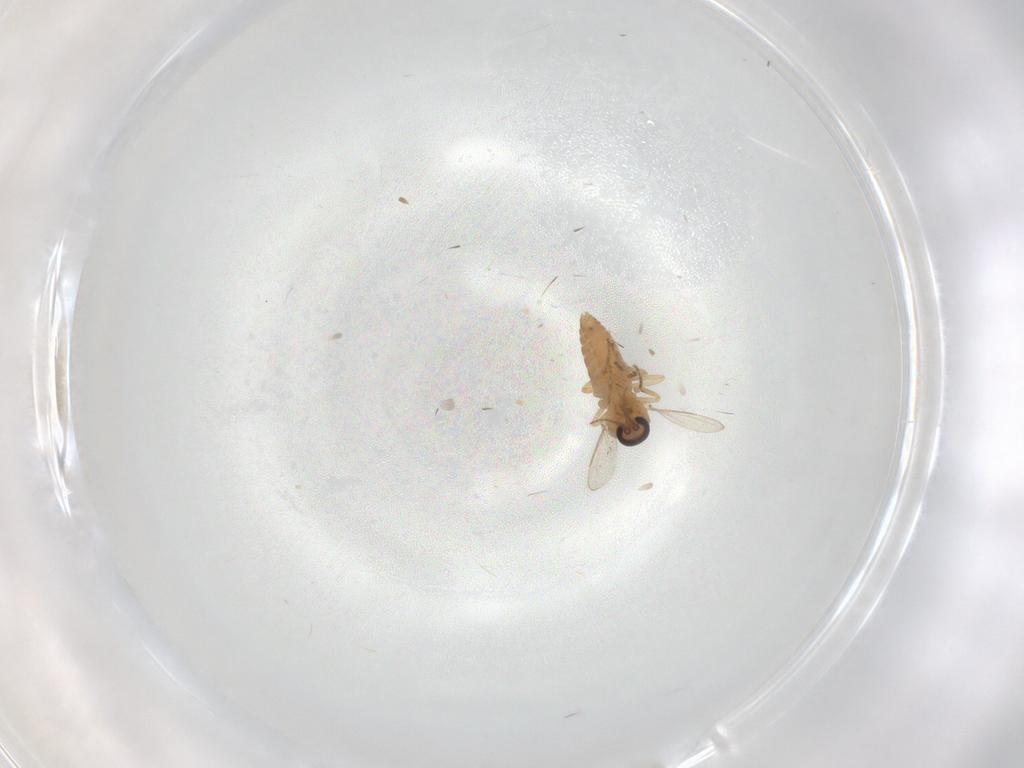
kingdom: Animalia
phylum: Arthropoda
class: Insecta
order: Diptera
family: Ceratopogonidae
